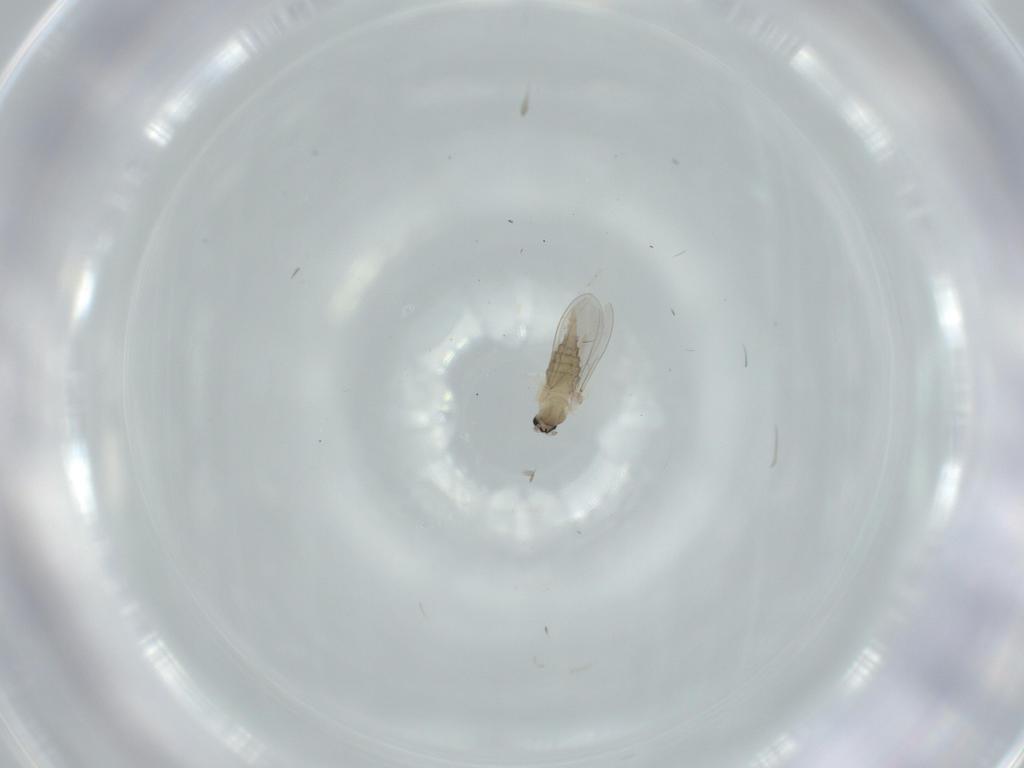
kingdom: Animalia
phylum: Arthropoda
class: Insecta
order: Diptera
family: Cecidomyiidae
